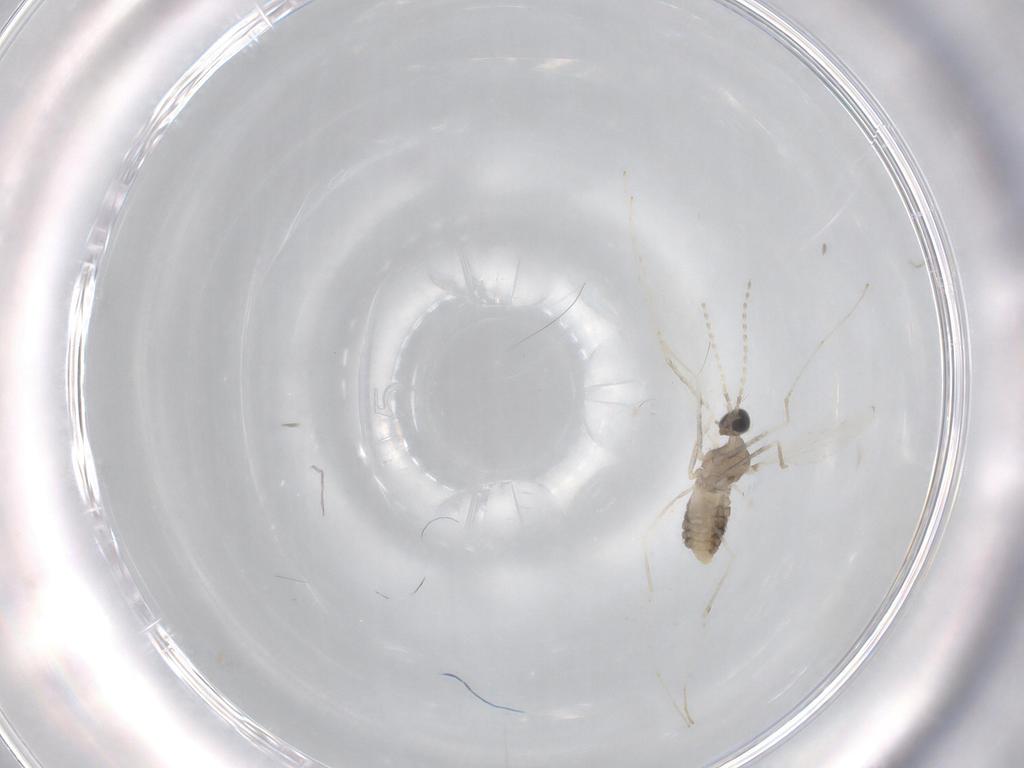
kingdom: Animalia
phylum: Arthropoda
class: Insecta
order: Diptera
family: Cecidomyiidae
